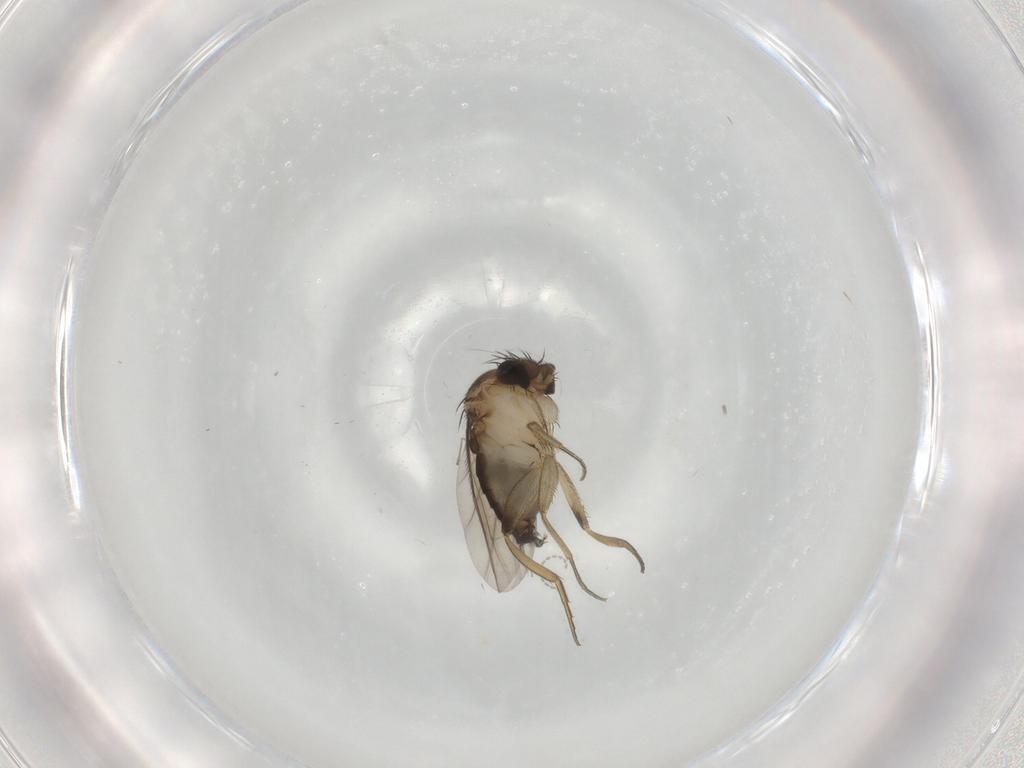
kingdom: Animalia
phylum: Arthropoda
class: Insecta
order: Diptera
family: Phoridae
